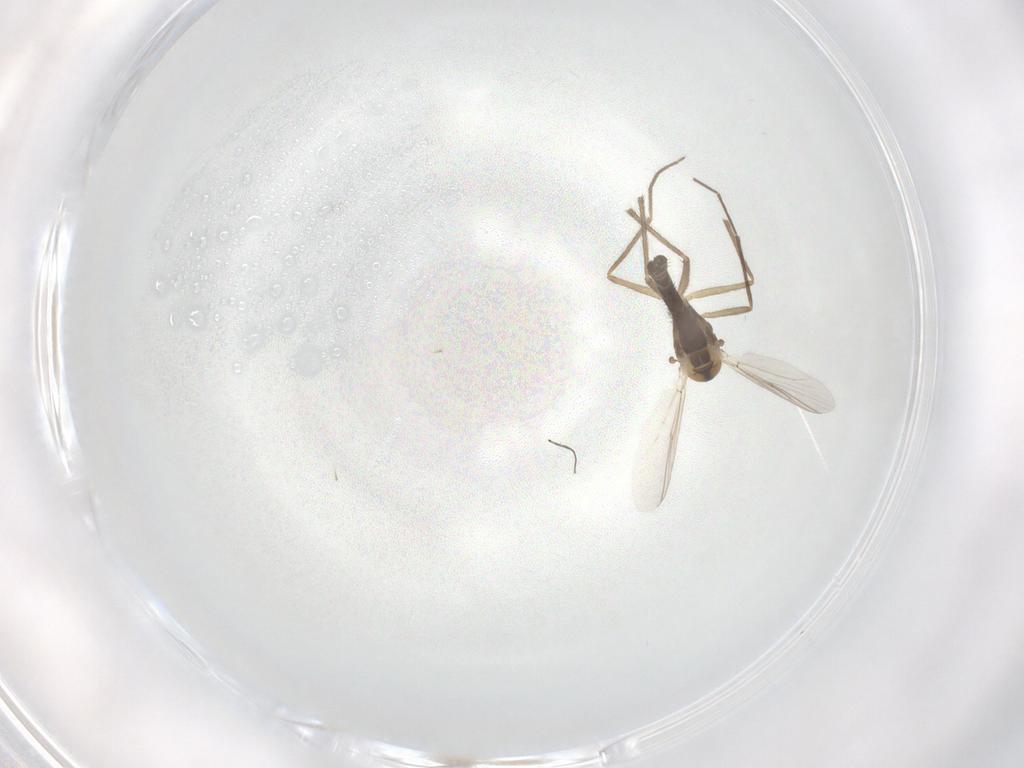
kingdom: Animalia
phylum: Arthropoda
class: Insecta
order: Diptera
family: Chironomidae
